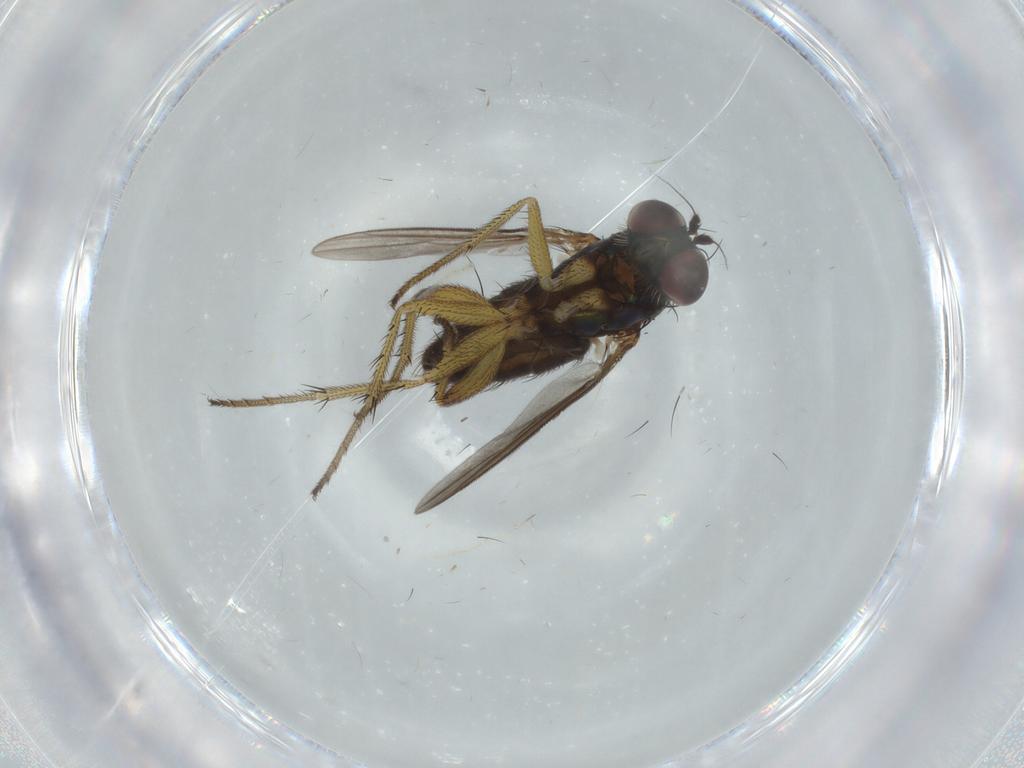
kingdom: Animalia
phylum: Arthropoda
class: Insecta
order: Diptera
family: Dolichopodidae
